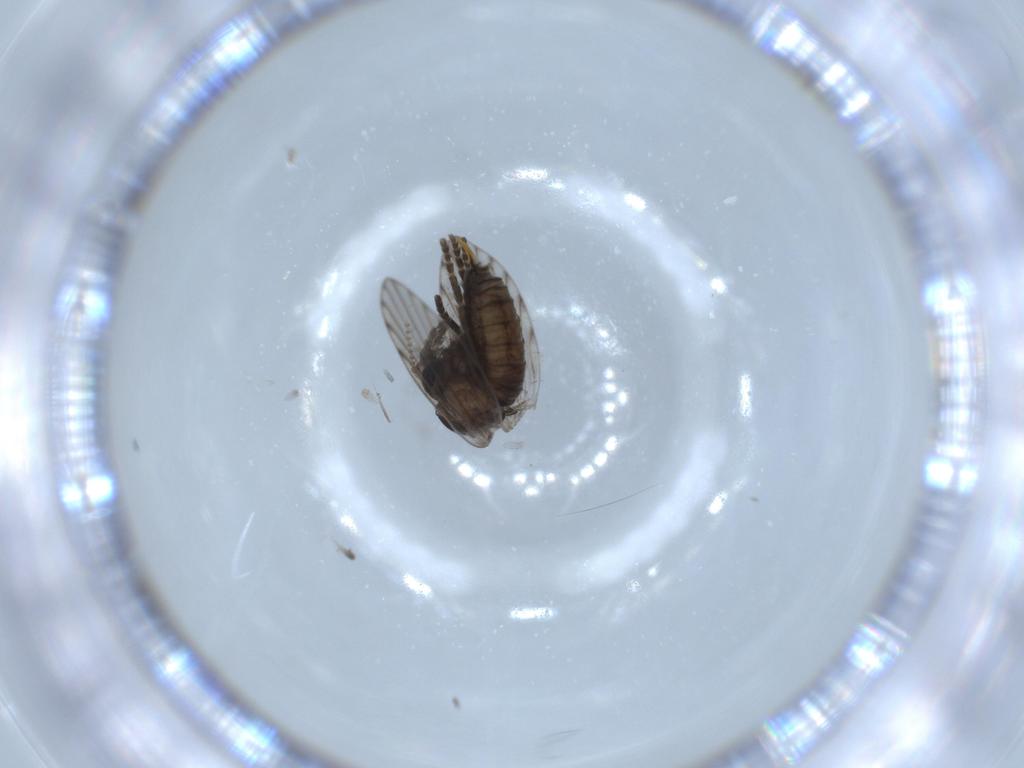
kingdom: Animalia
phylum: Arthropoda
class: Insecta
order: Diptera
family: Psychodidae
